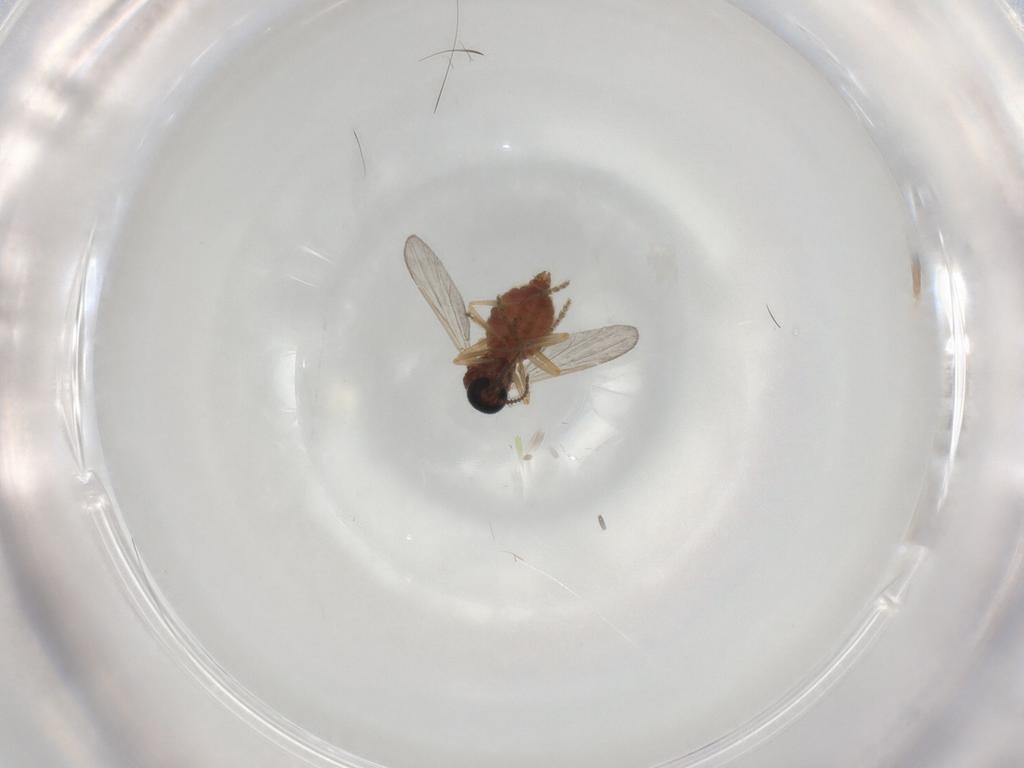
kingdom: Animalia
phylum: Arthropoda
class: Insecta
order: Diptera
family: Ceratopogonidae
